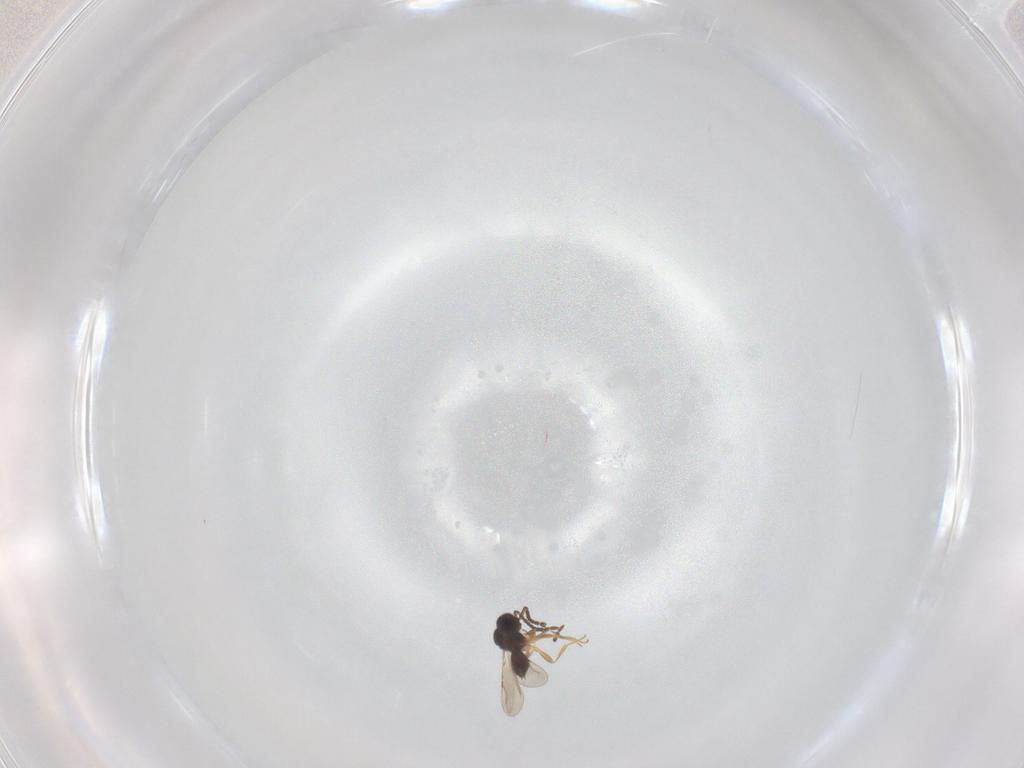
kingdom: Animalia
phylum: Arthropoda
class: Insecta
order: Hymenoptera
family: Ichneumonidae
